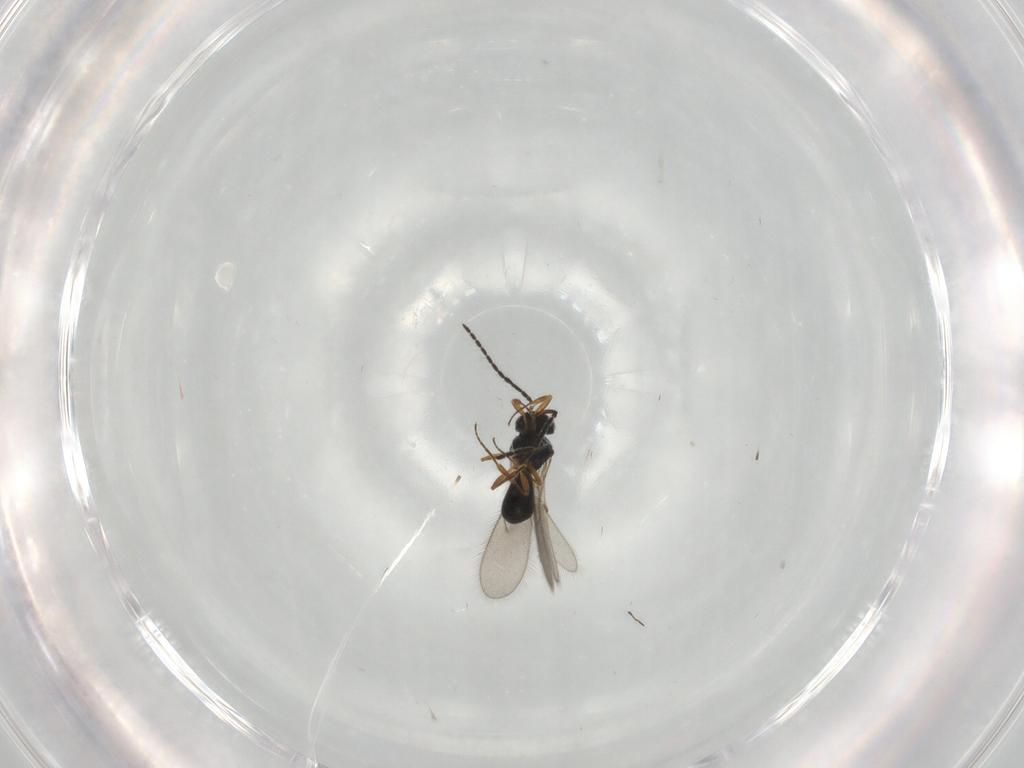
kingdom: Animalia
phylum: Arthropoda
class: Insecta
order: Hymenoptera
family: Scelionidae
